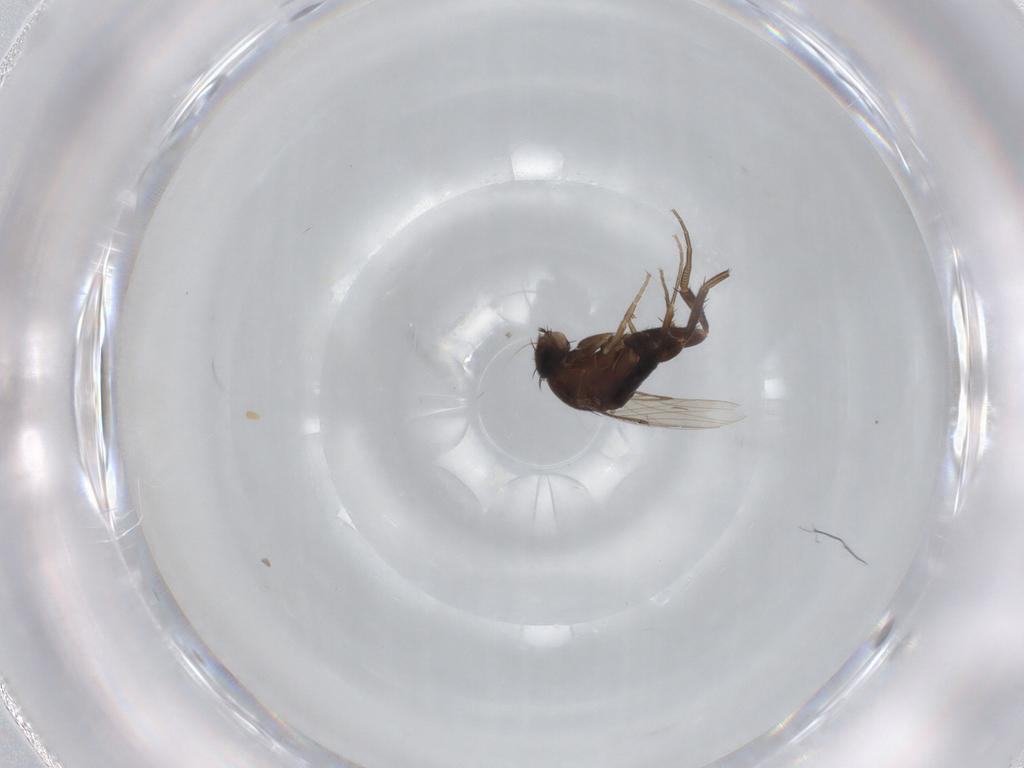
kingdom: Animalia
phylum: Arthropoda
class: Insecta
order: Diptera
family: Phoridae
